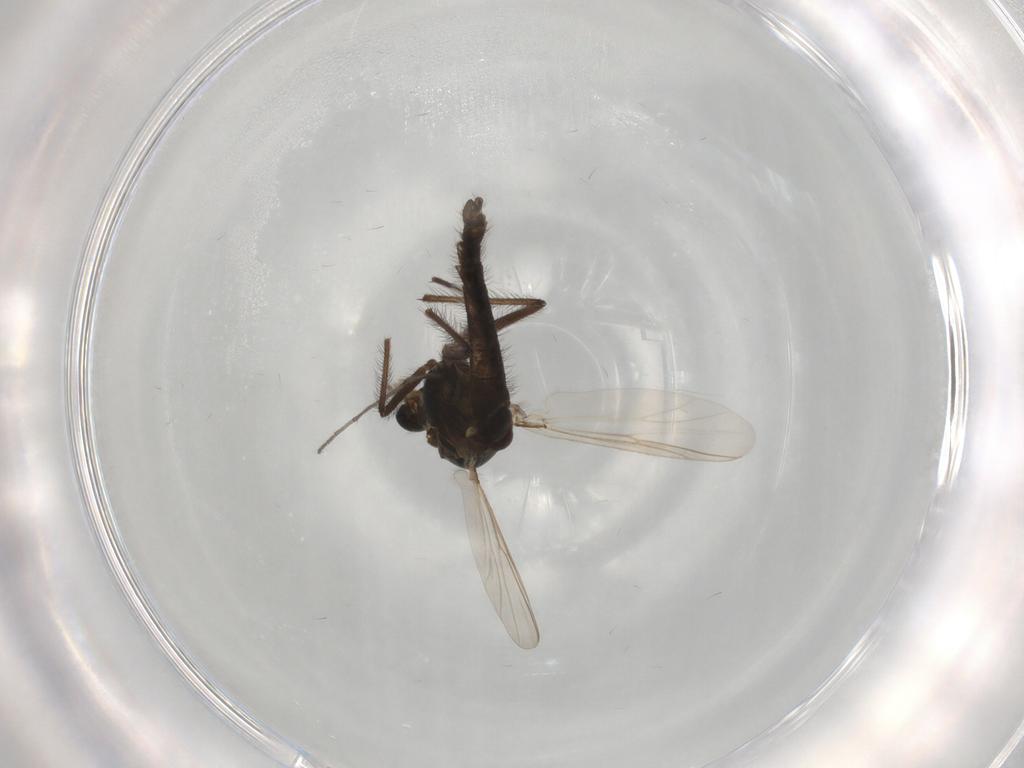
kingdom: Animalia
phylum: Arthropoda
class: Insecta
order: Diptera
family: Chironomidae
